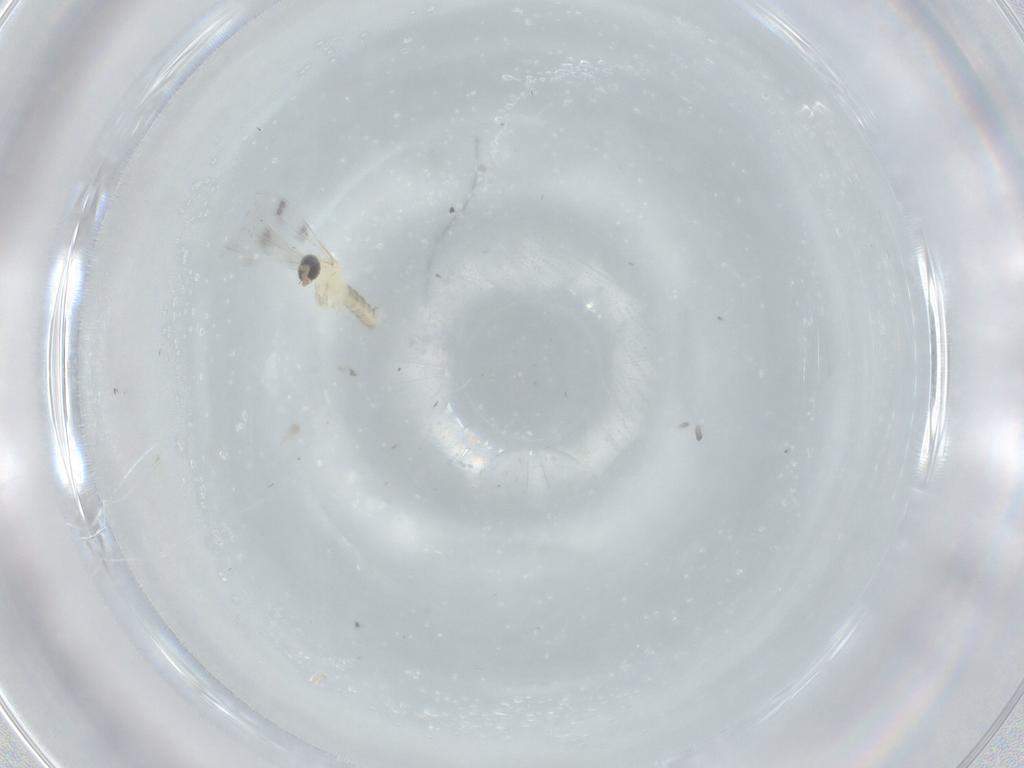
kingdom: Animalia
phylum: Arthropoda
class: Insecta
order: Diptera
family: Cecidomyiidae
